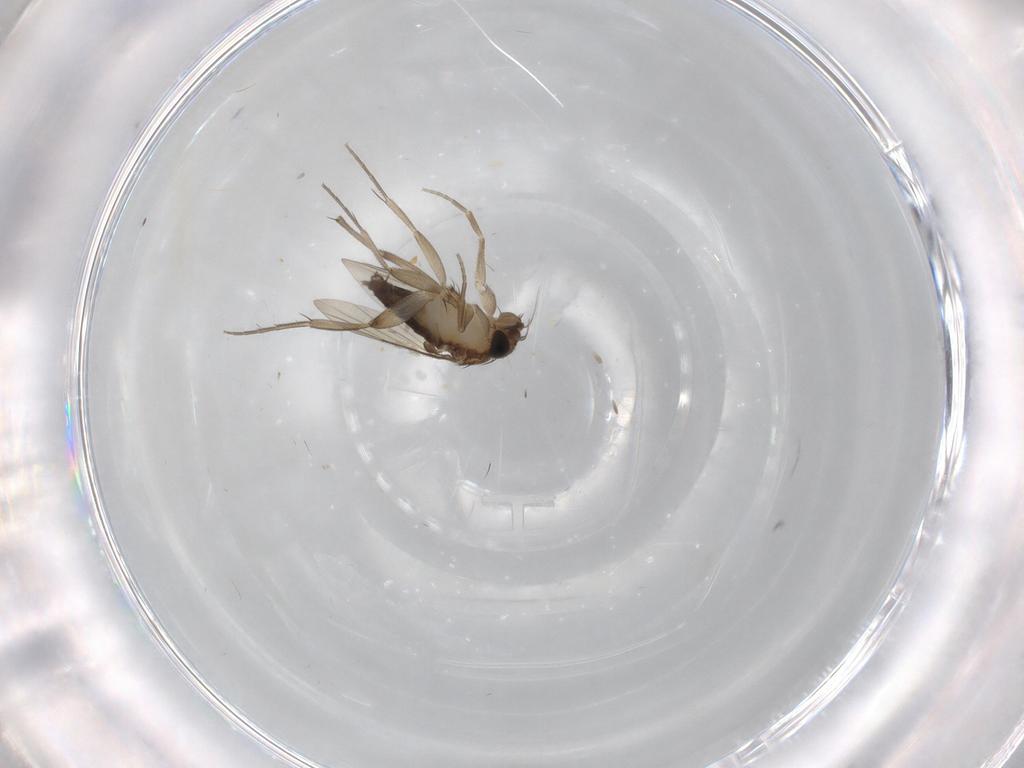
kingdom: Animalia
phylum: Arthropoda
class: Insecta
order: Diptera
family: Phoridae
